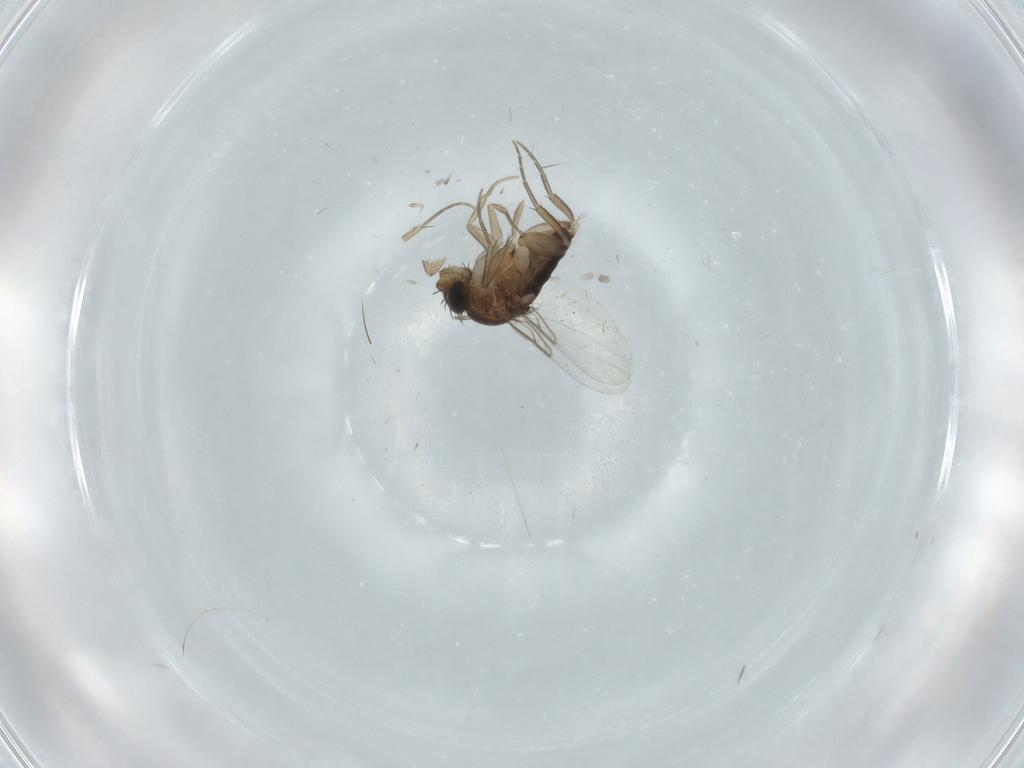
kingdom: Animalia
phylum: Arthropoda
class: Insecta
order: Diptera
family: Phoridae
